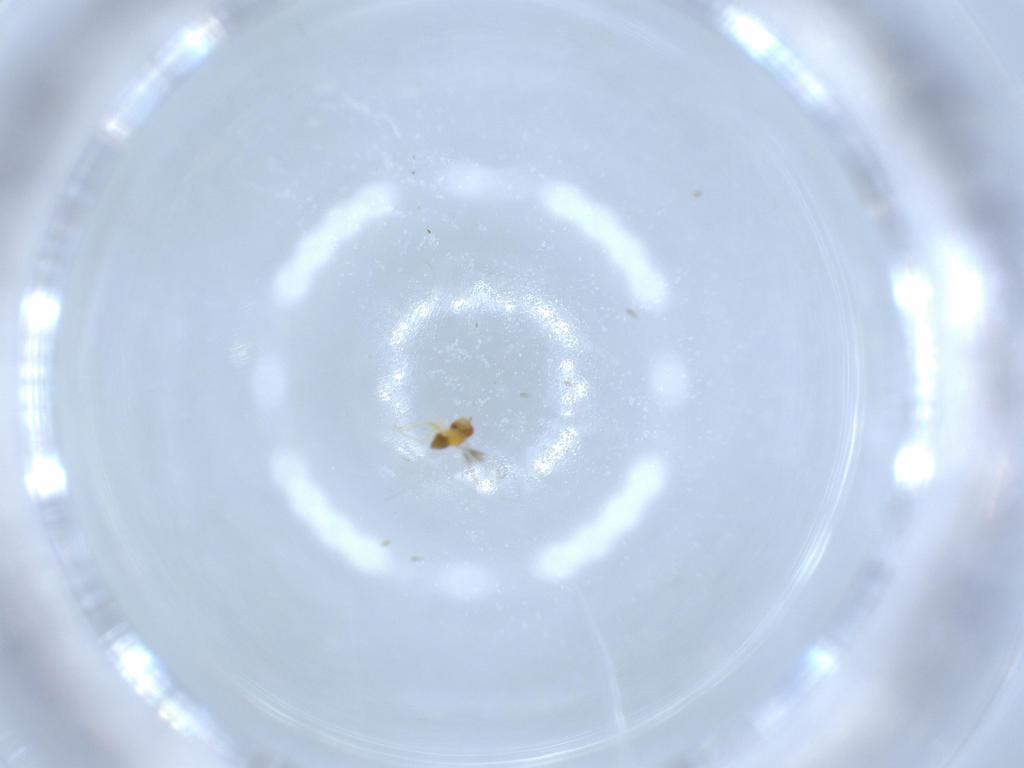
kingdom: Animalia
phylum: Arthropoda
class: Insecta
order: Hymenoptera
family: Trichogrammatidae
